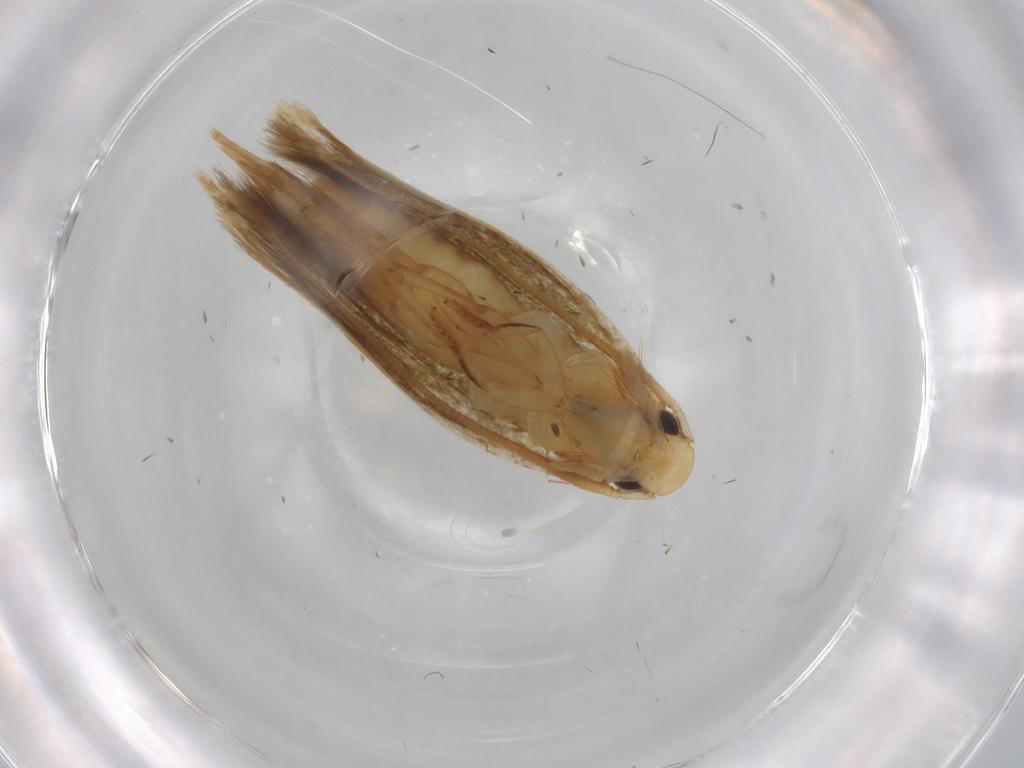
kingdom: Animalia
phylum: Arthropoda
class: Insecta
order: Lepidoptera
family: Tineidae
